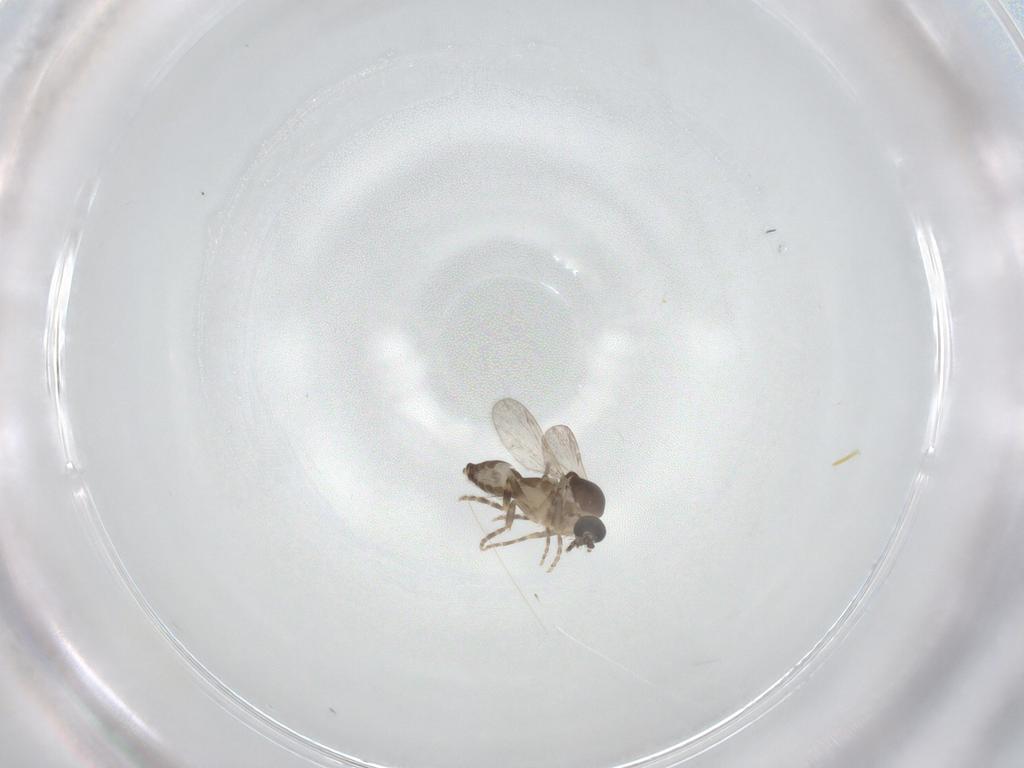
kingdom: Animalia
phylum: Arthropoda
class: Insecta
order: Diptera
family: Ceratopogonidae
